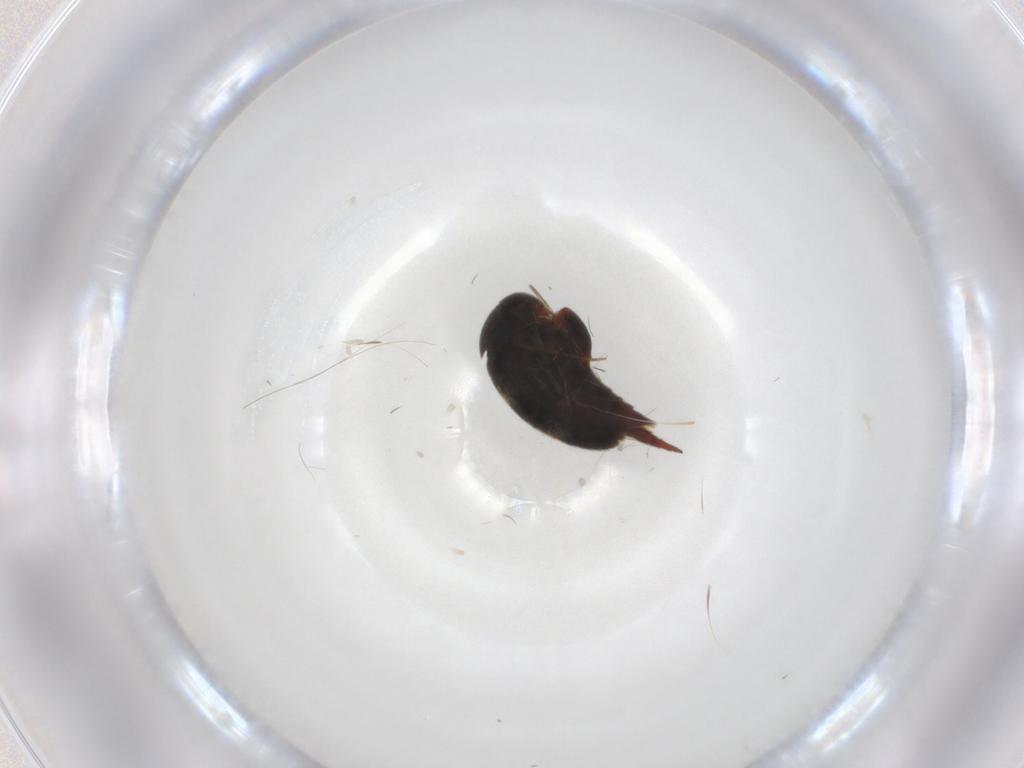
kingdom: Animalia
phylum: Arthropoda
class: Insecta
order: Coleoptera
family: Mordellidae
